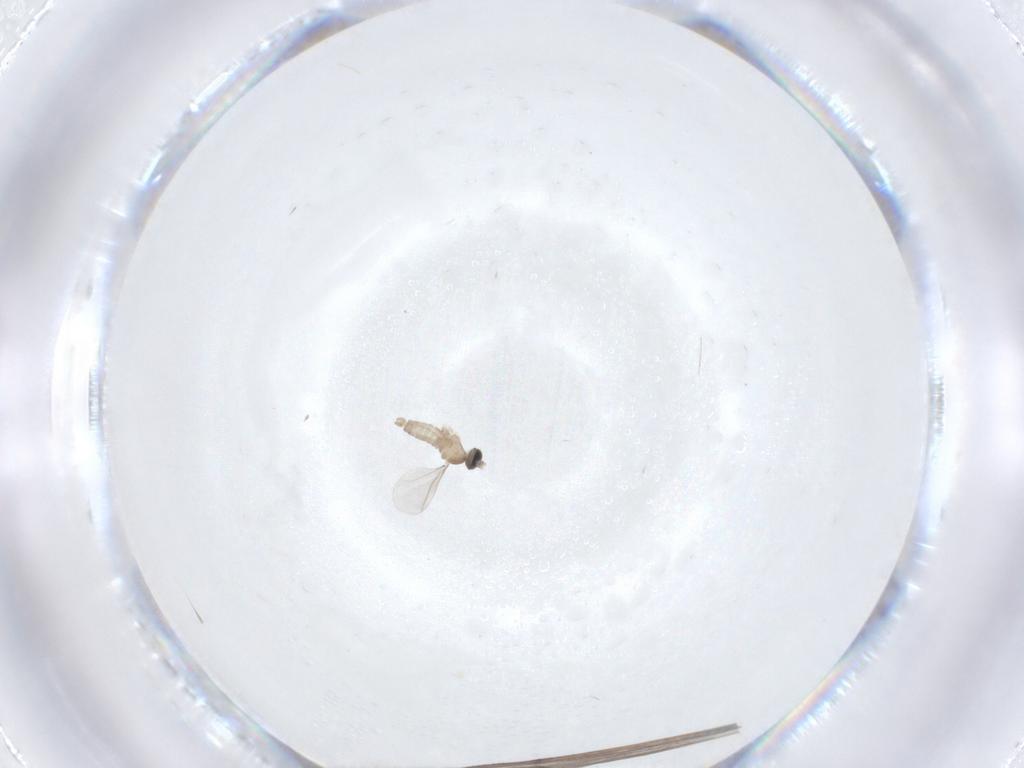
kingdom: Animalia
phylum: Arthropoda
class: Insecta
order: Diptera
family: Limoniidae
